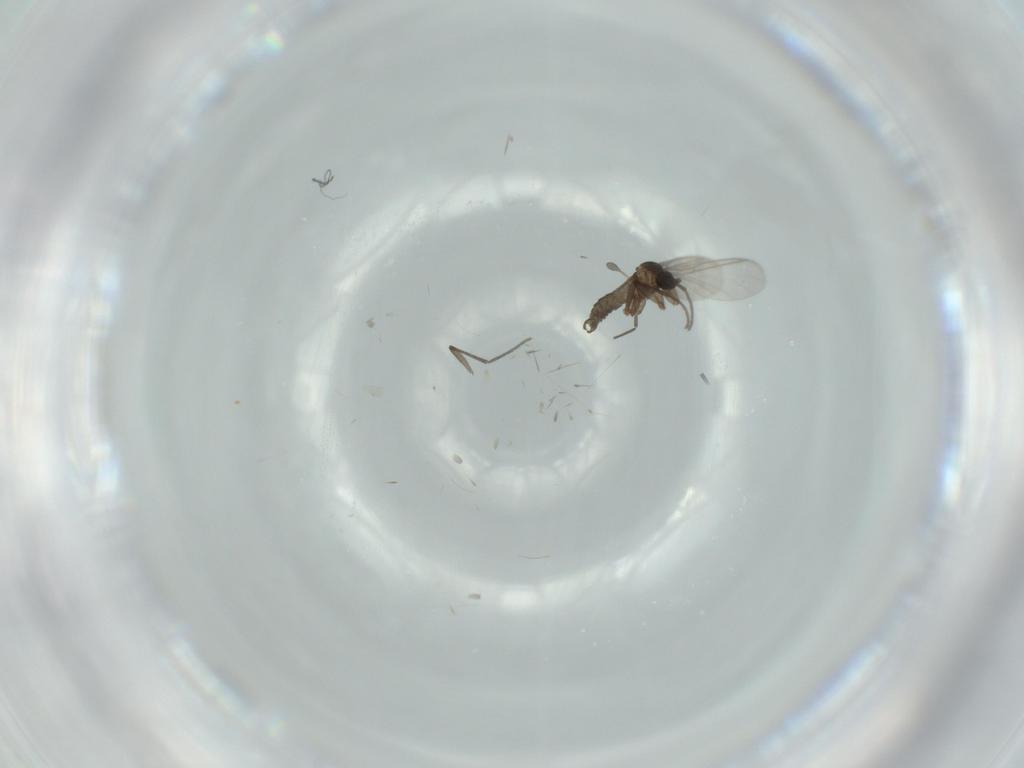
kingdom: Animalia
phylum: Arthropoda
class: Insecta
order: Diptera
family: Sciaridae
